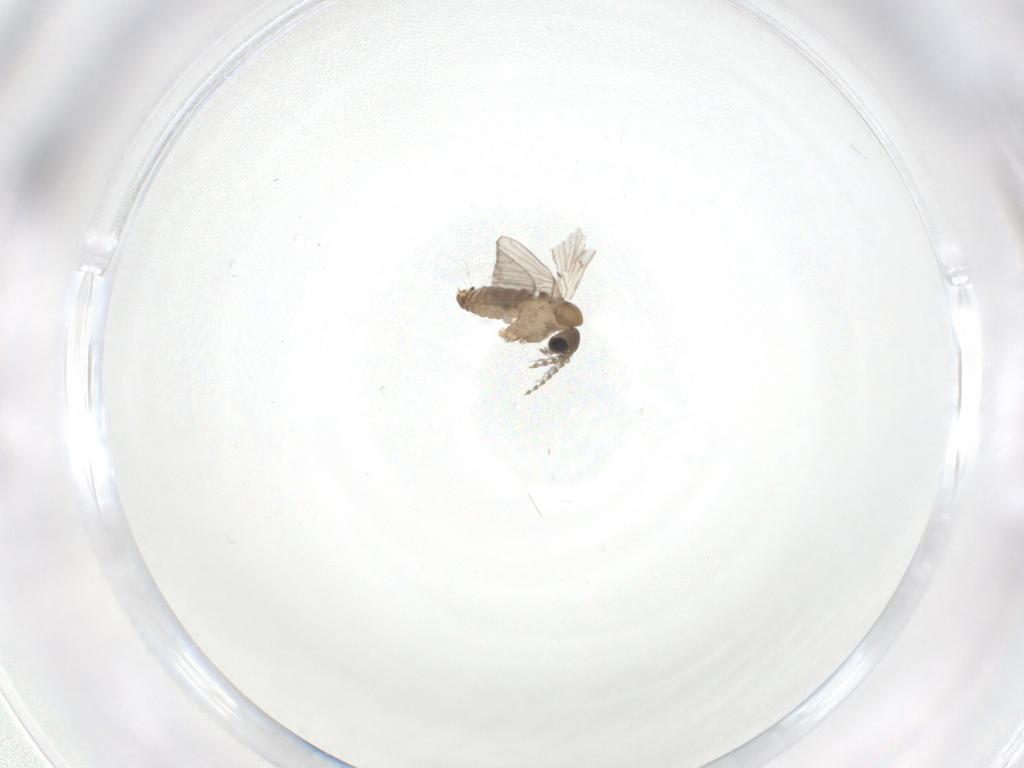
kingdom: Animalia
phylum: Arthropoda
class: Insecta
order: Diptera
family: Psychodidae
